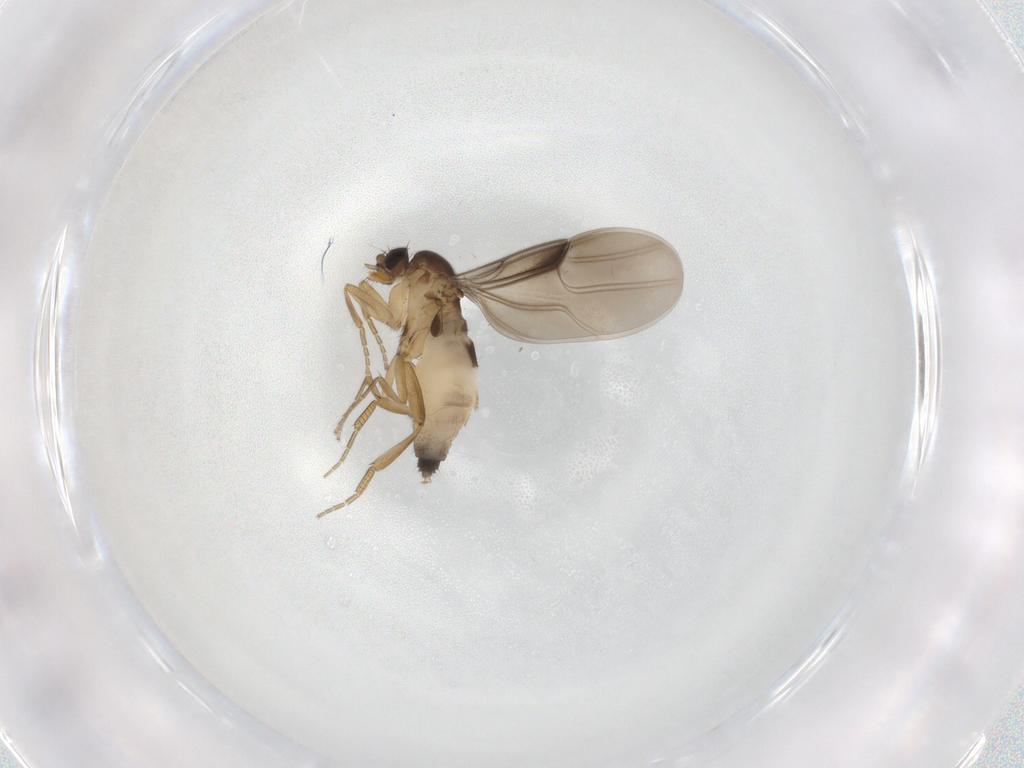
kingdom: Animalia
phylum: Arthropoda
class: Insecta
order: Diptera
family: Phoridae
